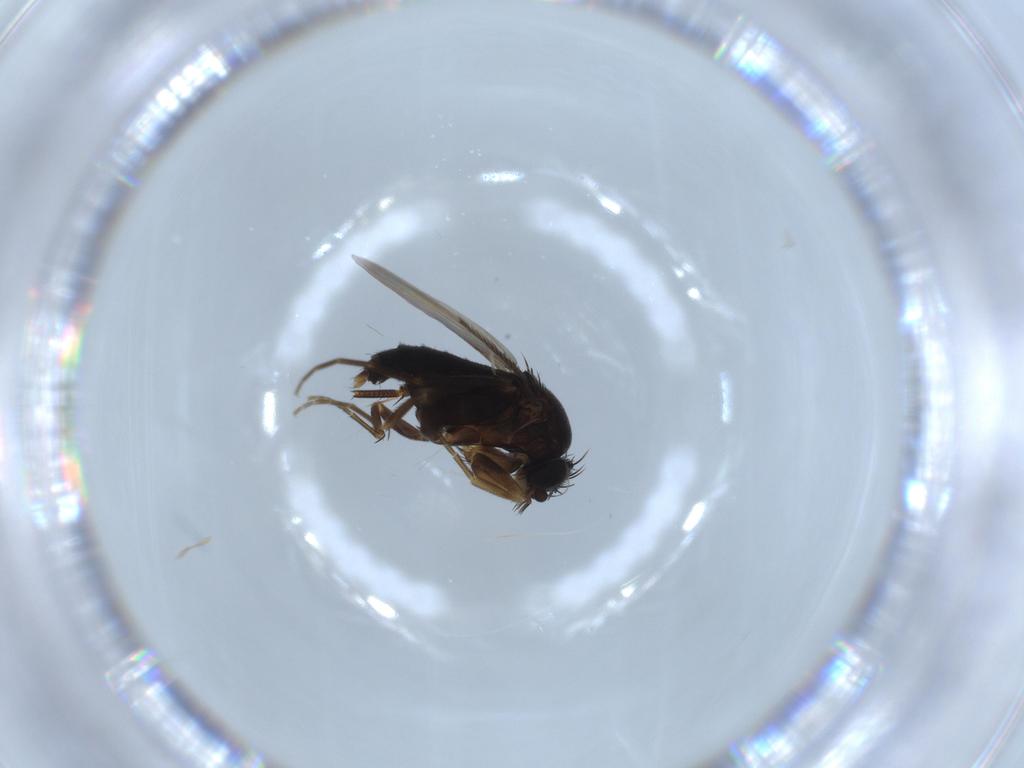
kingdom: Animalia
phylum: Arthropoda
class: Insecta
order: Diptera
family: Phoridae
